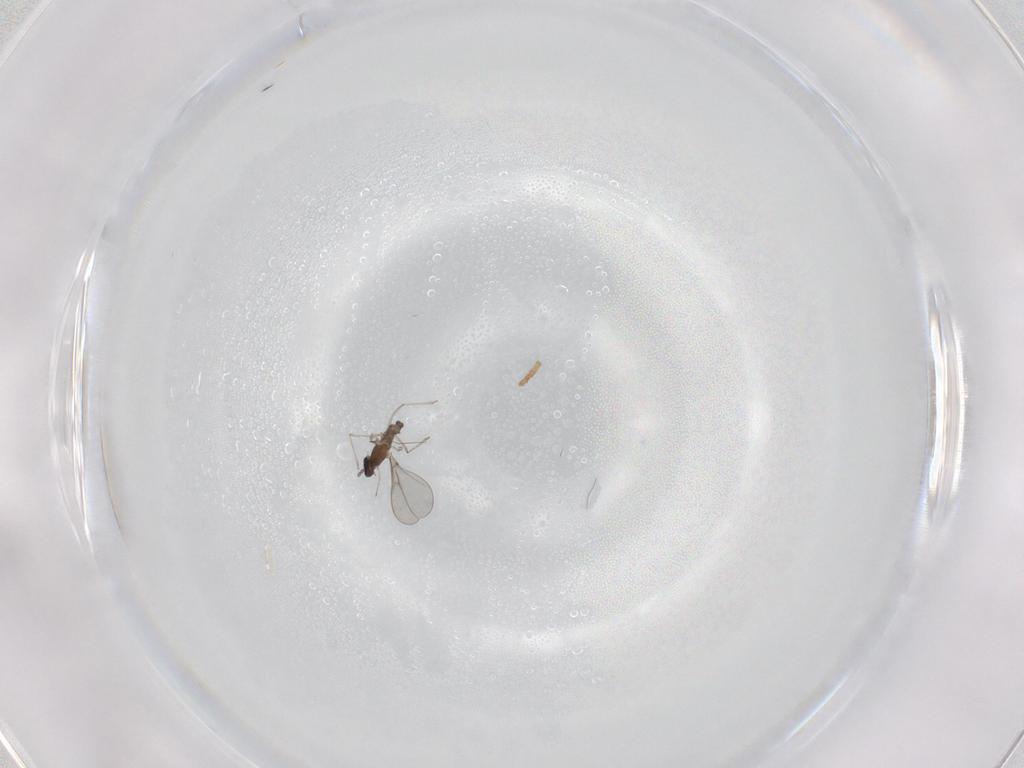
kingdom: Animalia
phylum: Arthropoda
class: Insecta
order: Diptera
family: Drosophilidae
